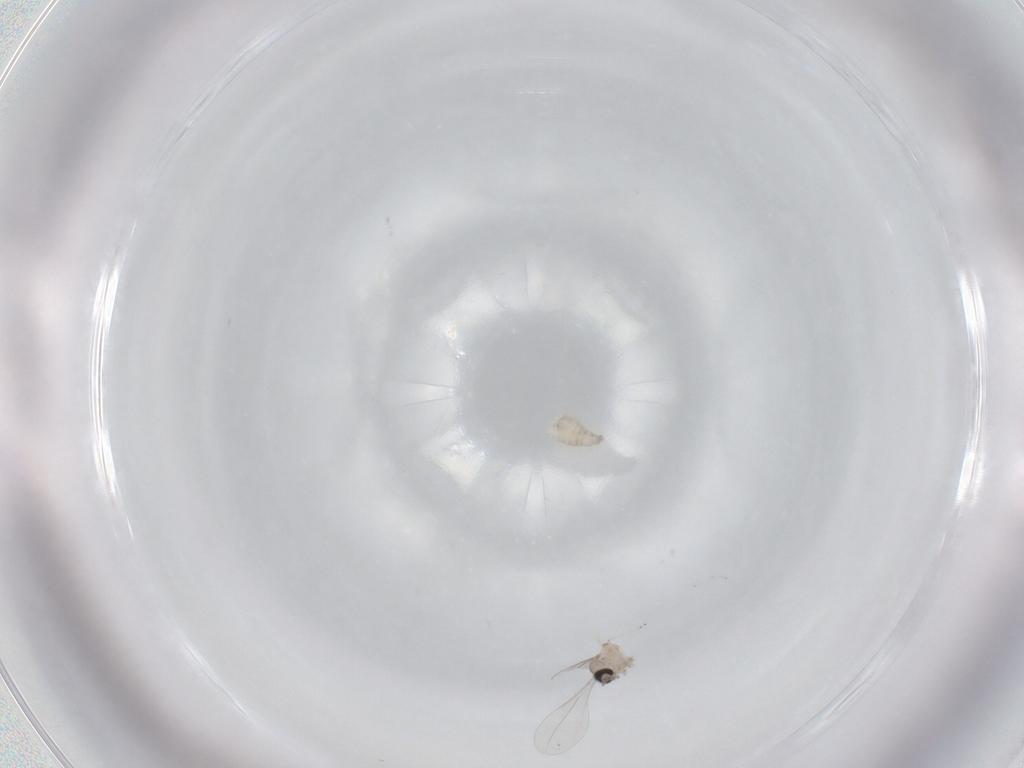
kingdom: Animalia
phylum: Arthropoda
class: Insecta
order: Diptera
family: Cecidomyiidae
